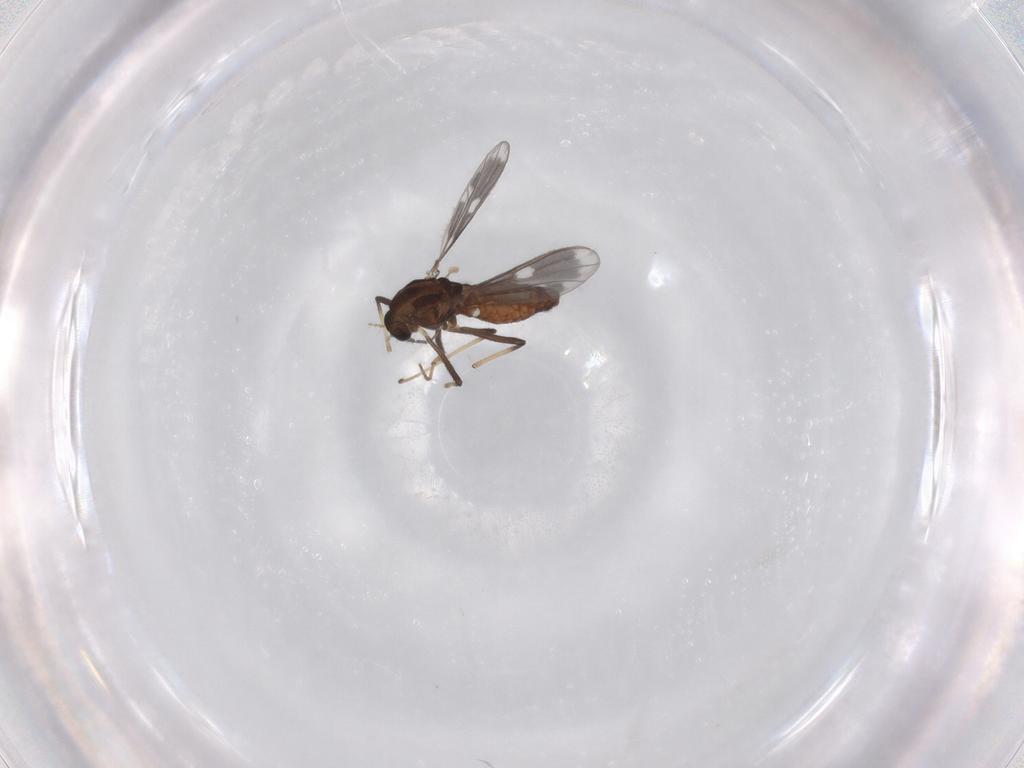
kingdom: Animalia
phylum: Arthropoda
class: Insecta
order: Diptera
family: Chironomidae
